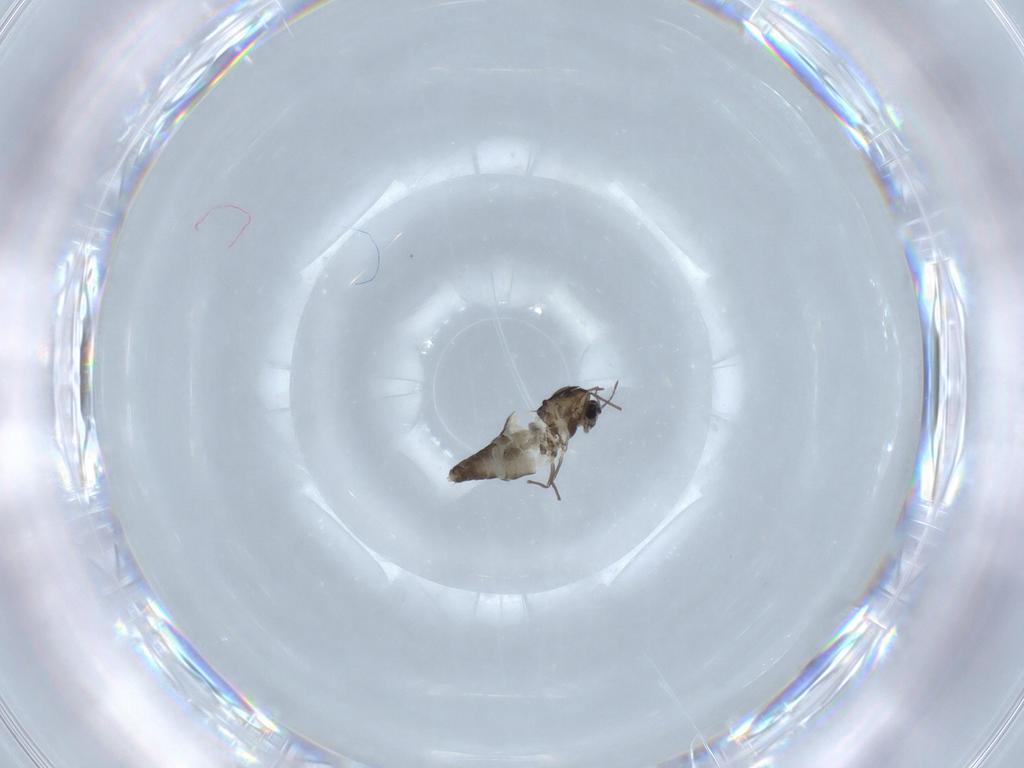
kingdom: Animalia
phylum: Arthropoda
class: Insecta
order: Diptera
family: Chironomidae
